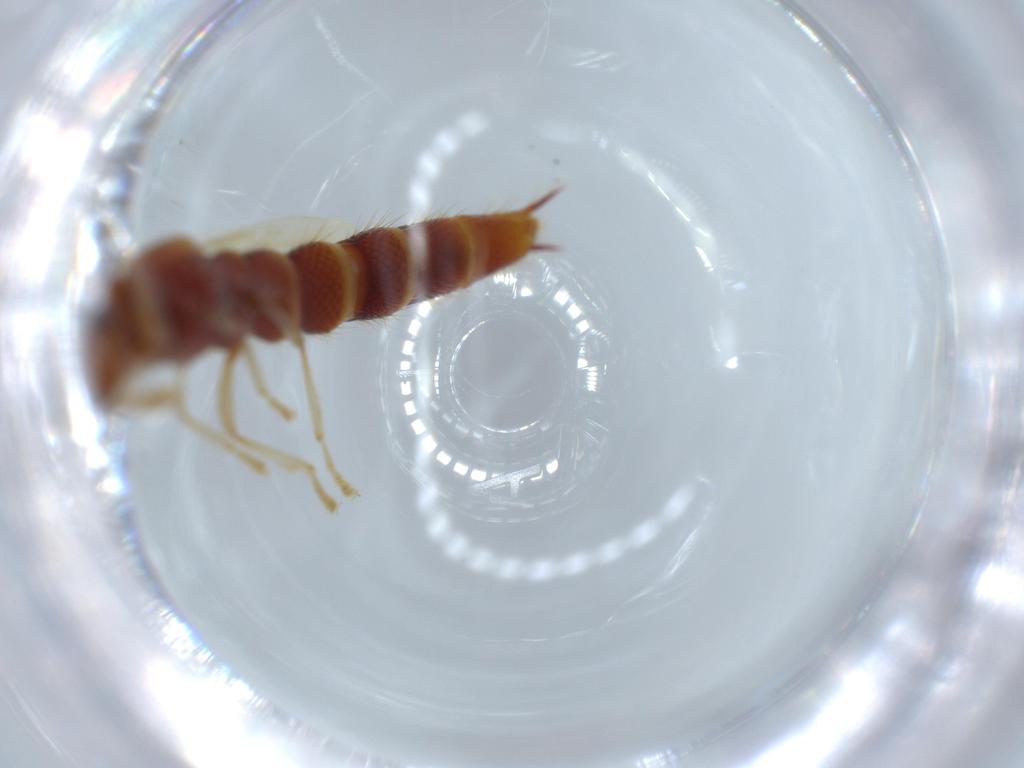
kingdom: Animalia
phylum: Arthropoda
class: Insecta
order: Coleoptera
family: Staphylinidae
